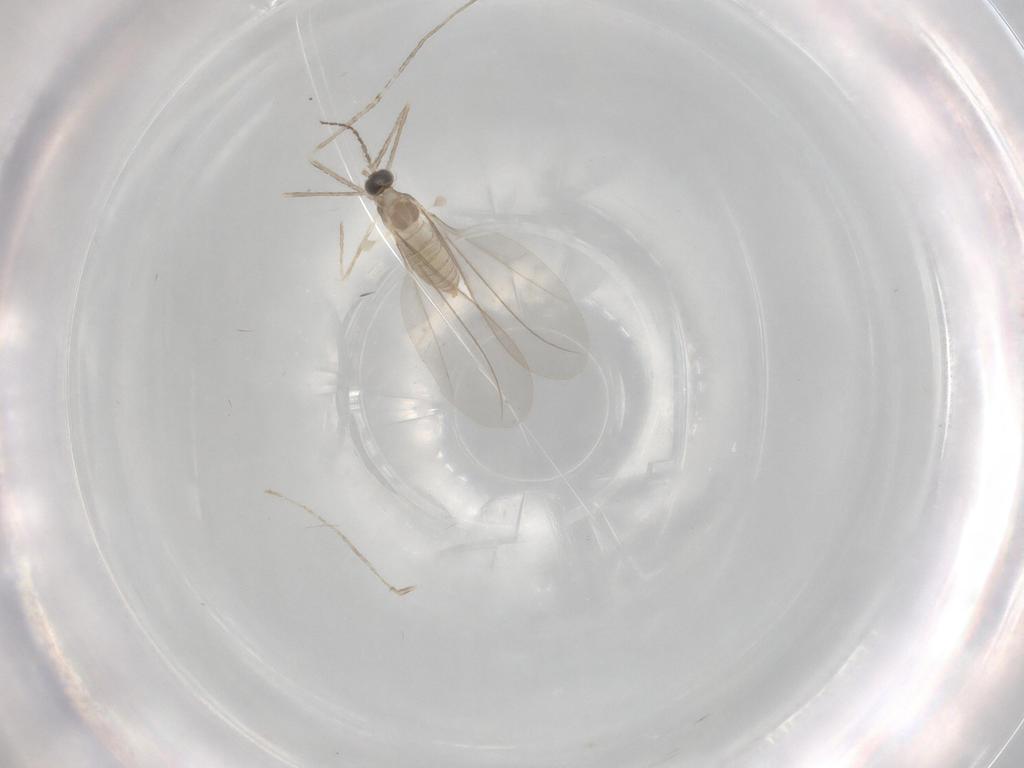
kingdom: Animalia
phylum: Arthropoda
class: Insecta
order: Diptera
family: Cecidomyiidae
